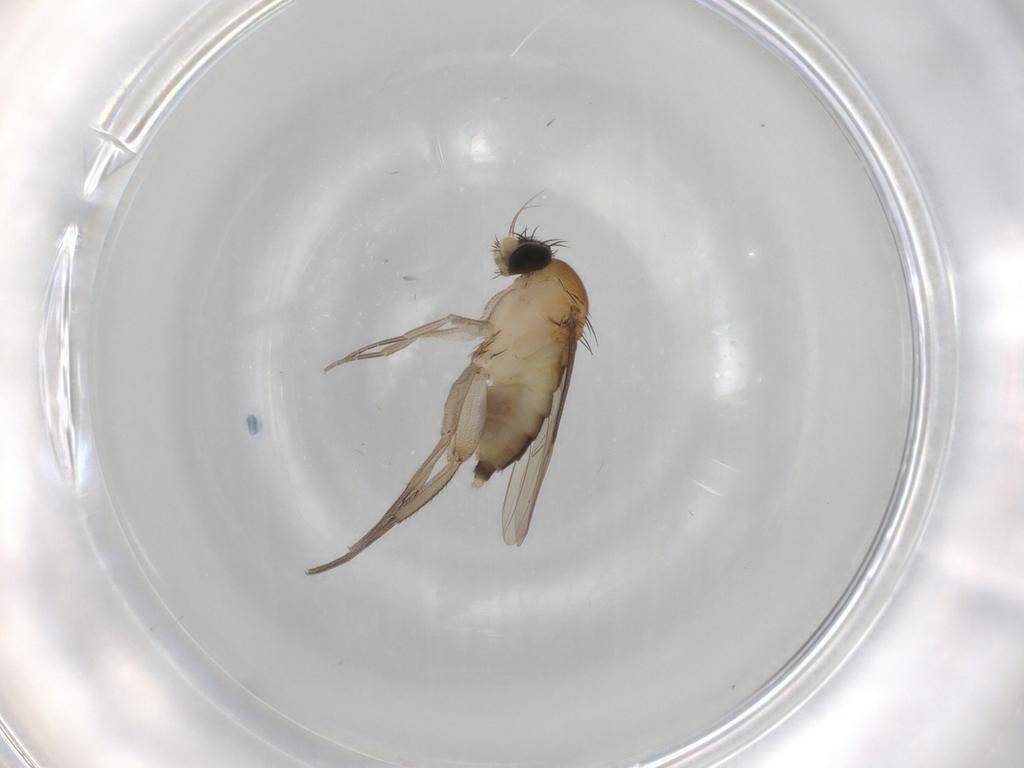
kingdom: Animalia
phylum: Arthropoda
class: Insecta
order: Diptera
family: Phoridae
